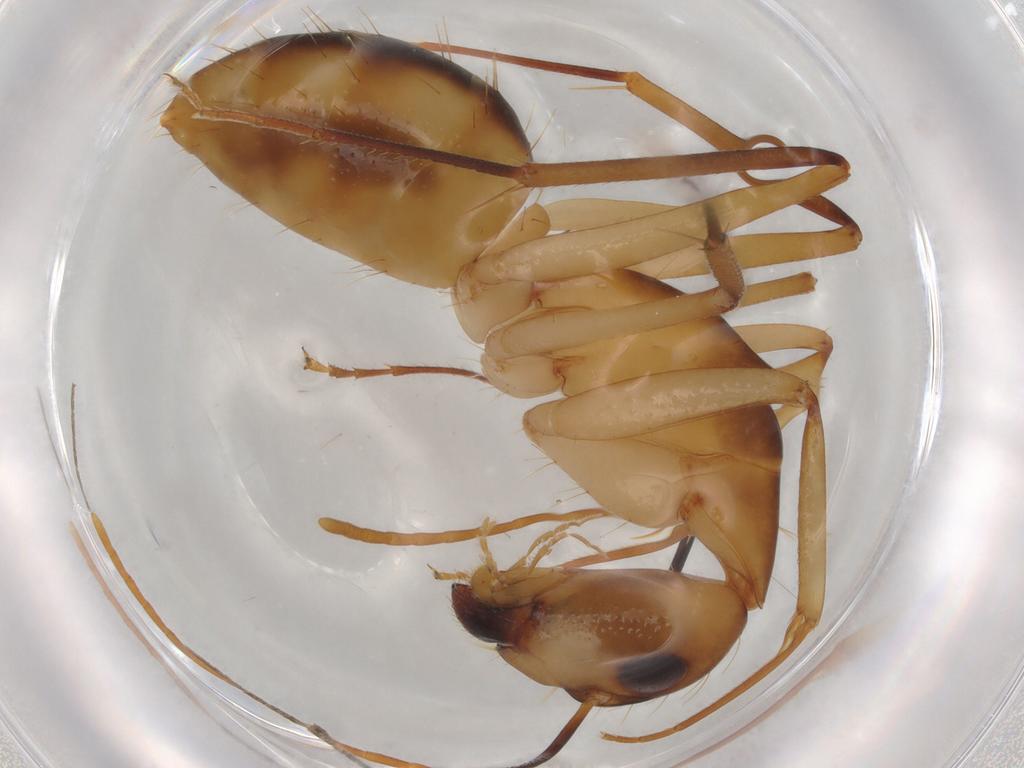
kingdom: Animalia
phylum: Arthropoda
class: Insecta
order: Hymenoptera
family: Formicidae
